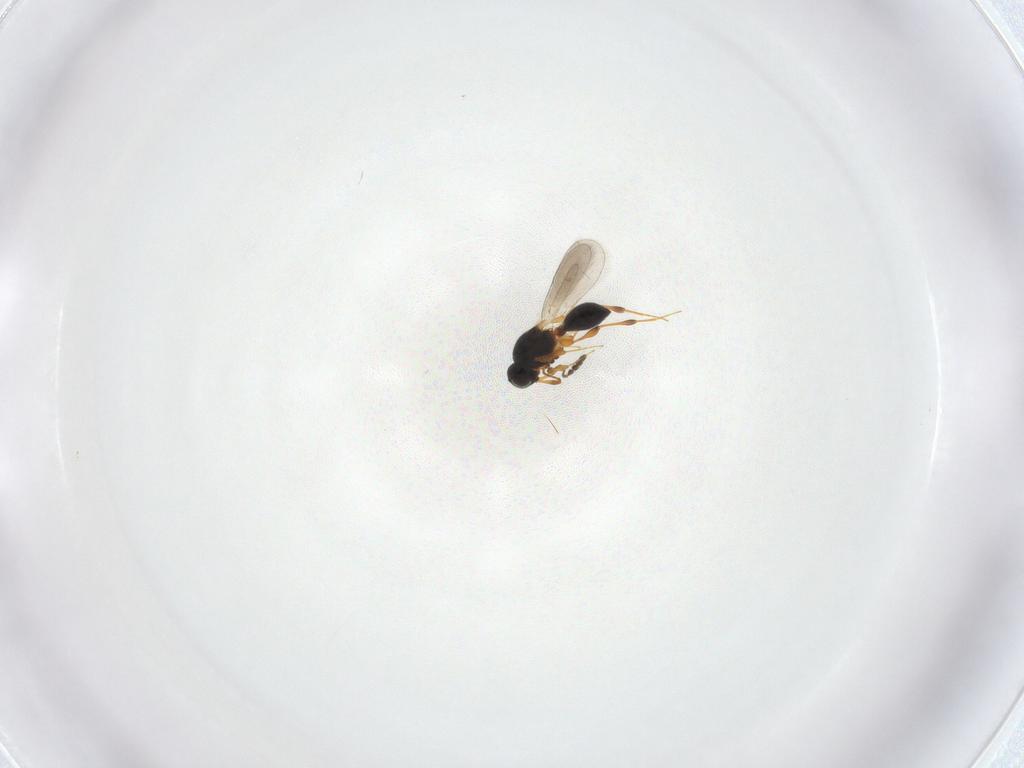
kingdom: Animalia
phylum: Arthropoda
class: Insecta
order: Hymenoptera
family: Platygastridae
